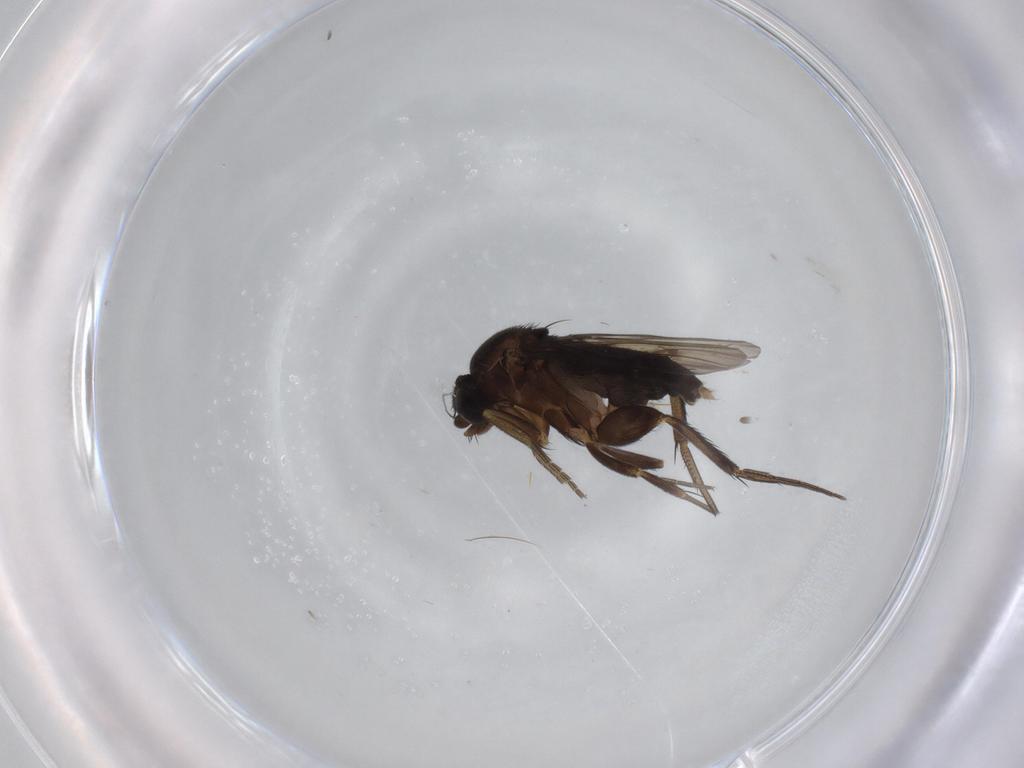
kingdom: Animalia
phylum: Arthropoda
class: Insecta
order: Diptera
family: Phoridae
